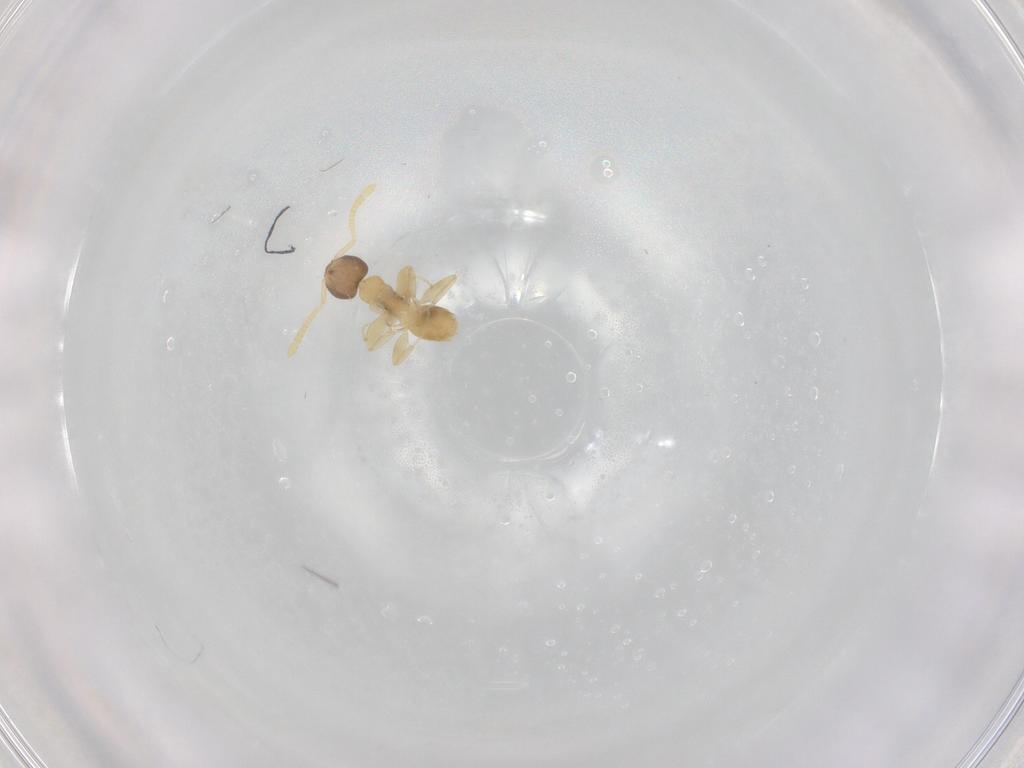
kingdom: Animalia
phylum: Arthropoda
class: Insecta
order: Hymenoptera
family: Formicidae
